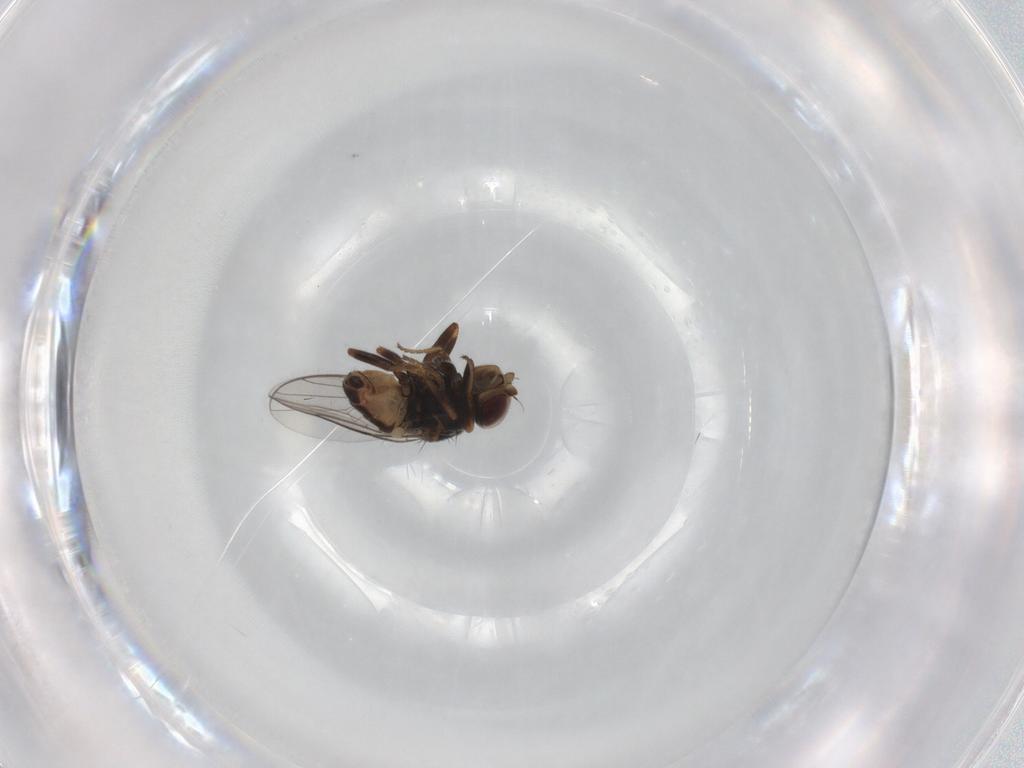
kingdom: Animalia
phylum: Arthropoda
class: Insecta
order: Diptera
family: Chloropidae
